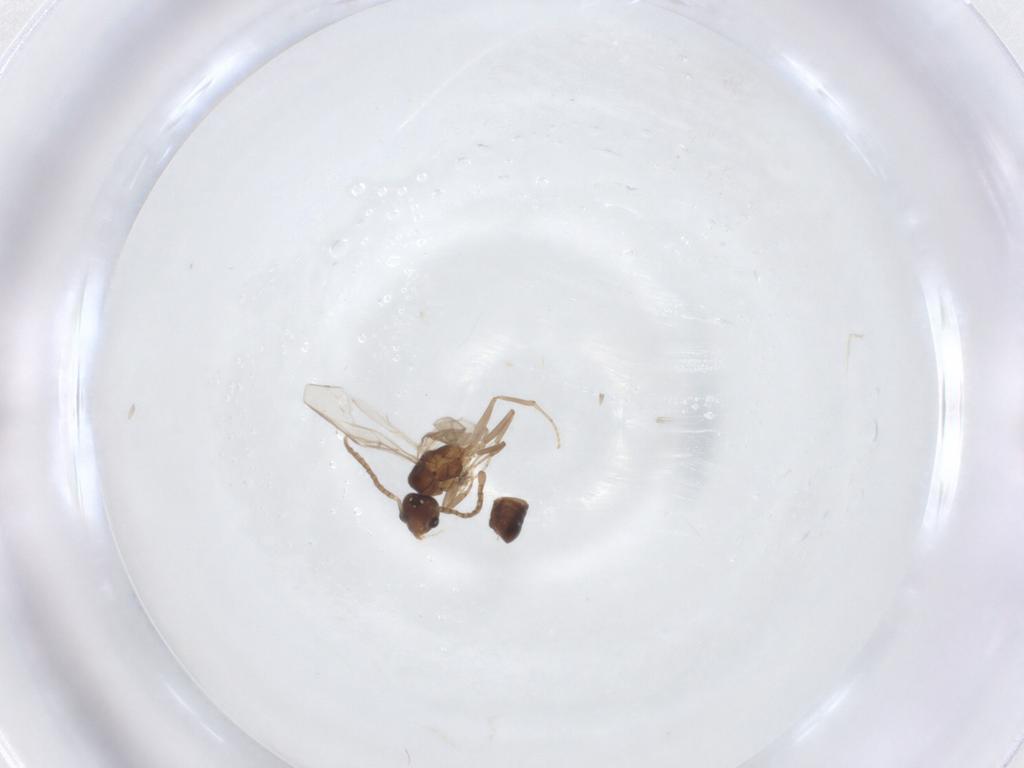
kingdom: Animalia
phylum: Arthropoda
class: Insecta
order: Hymenoptera
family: Formicidae
